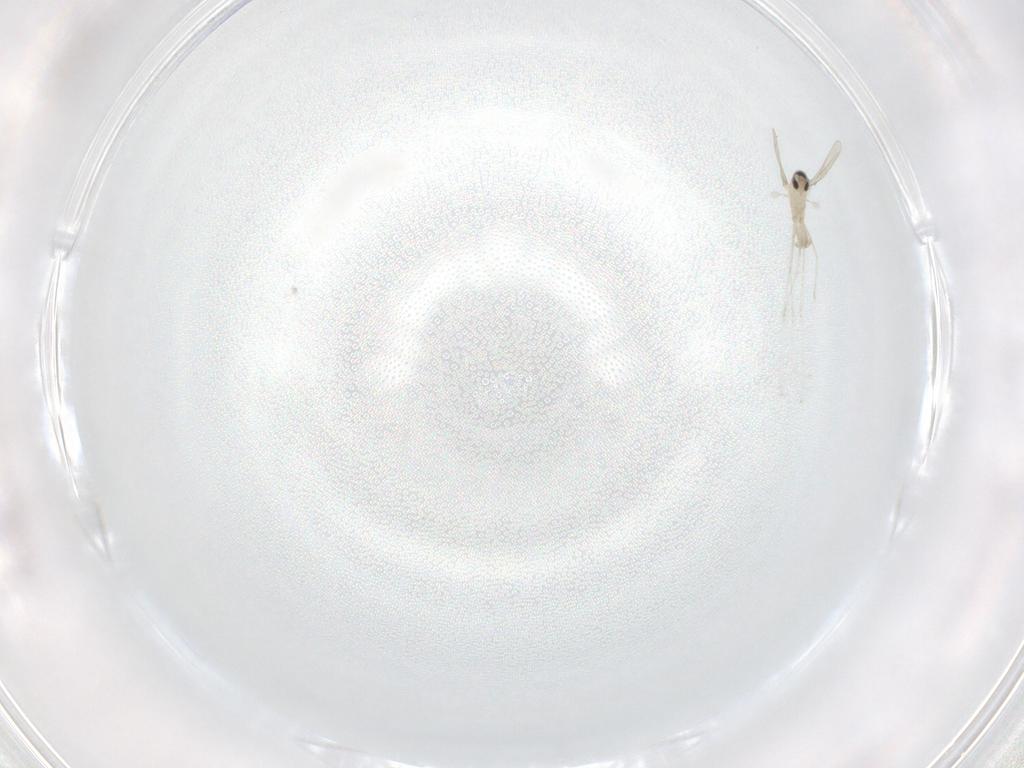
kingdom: Animalia
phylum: Arthropoda
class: Insecta
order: Diptera
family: Cecidomyiidae
